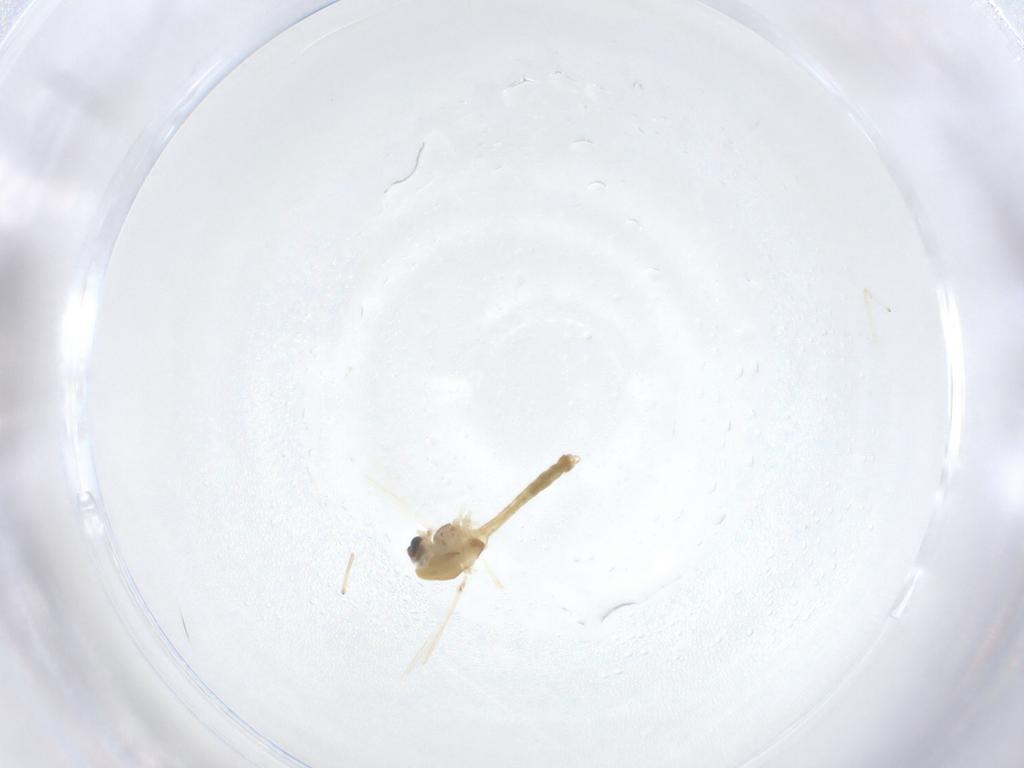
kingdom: Animalia
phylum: Arthropoda
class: Insecta
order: Diptera
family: Chironomidae
